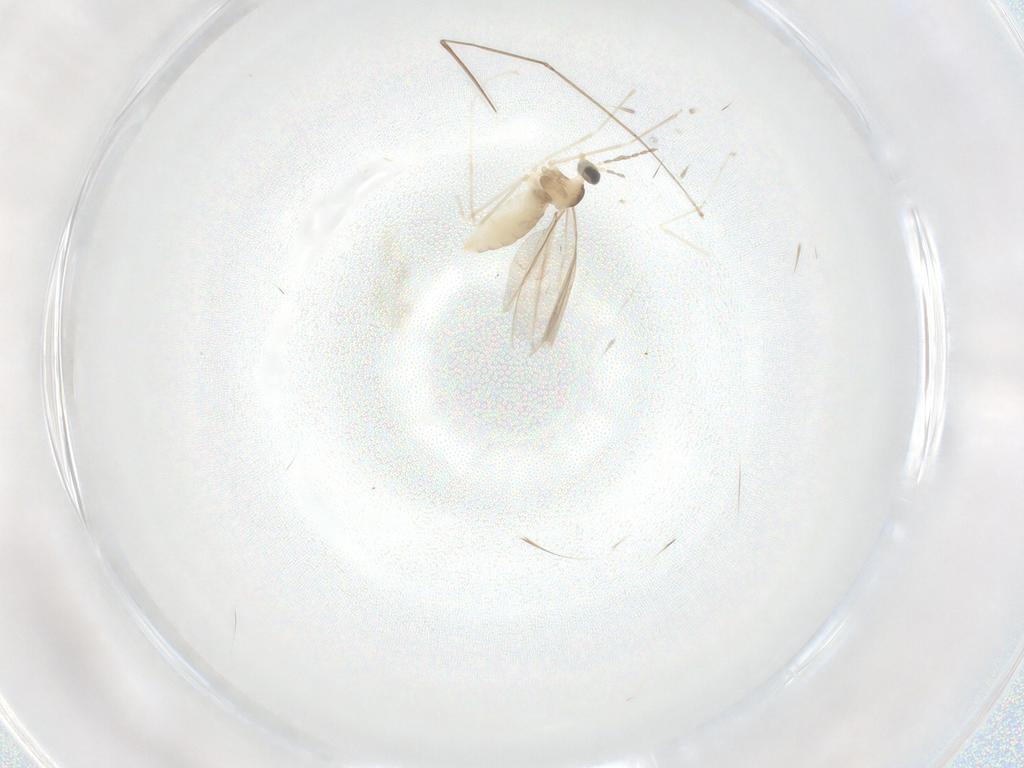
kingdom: Animalia
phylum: Arthropoda
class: Insecta
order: Diptera
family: Cecidomyiidae
